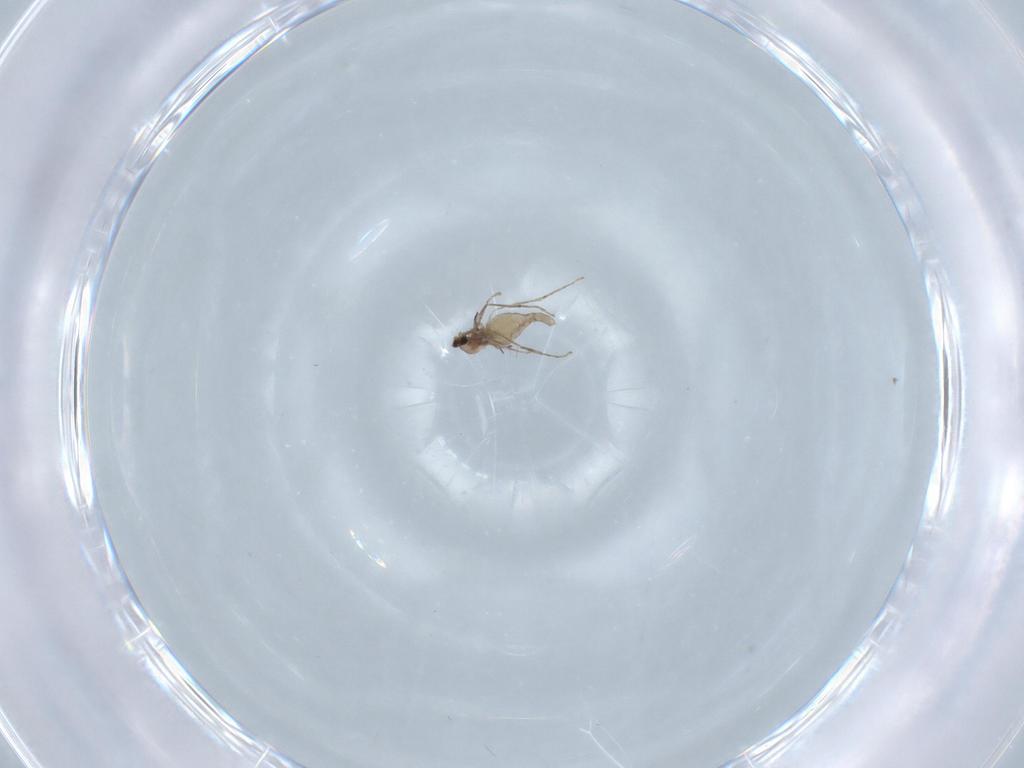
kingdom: Animalia
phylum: Arthropoda
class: Insecta
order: Diptera
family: Cecidomyiidae
